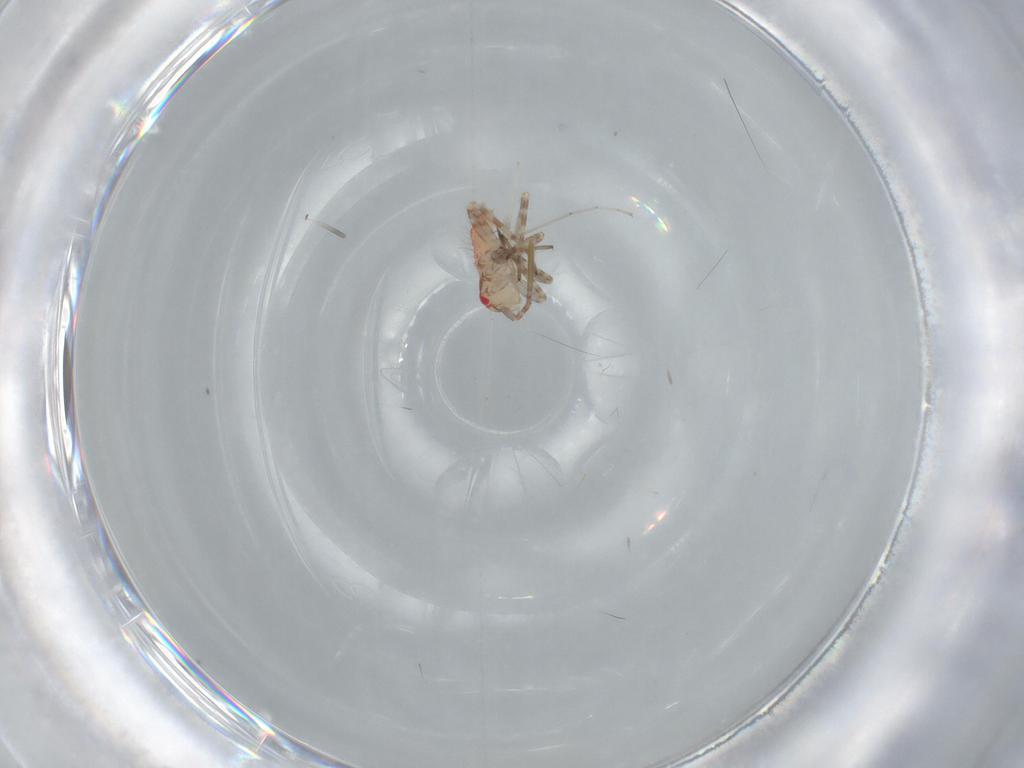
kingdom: Animalia
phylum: Arthropoda
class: Insecta
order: Hemiptera
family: Miridae
